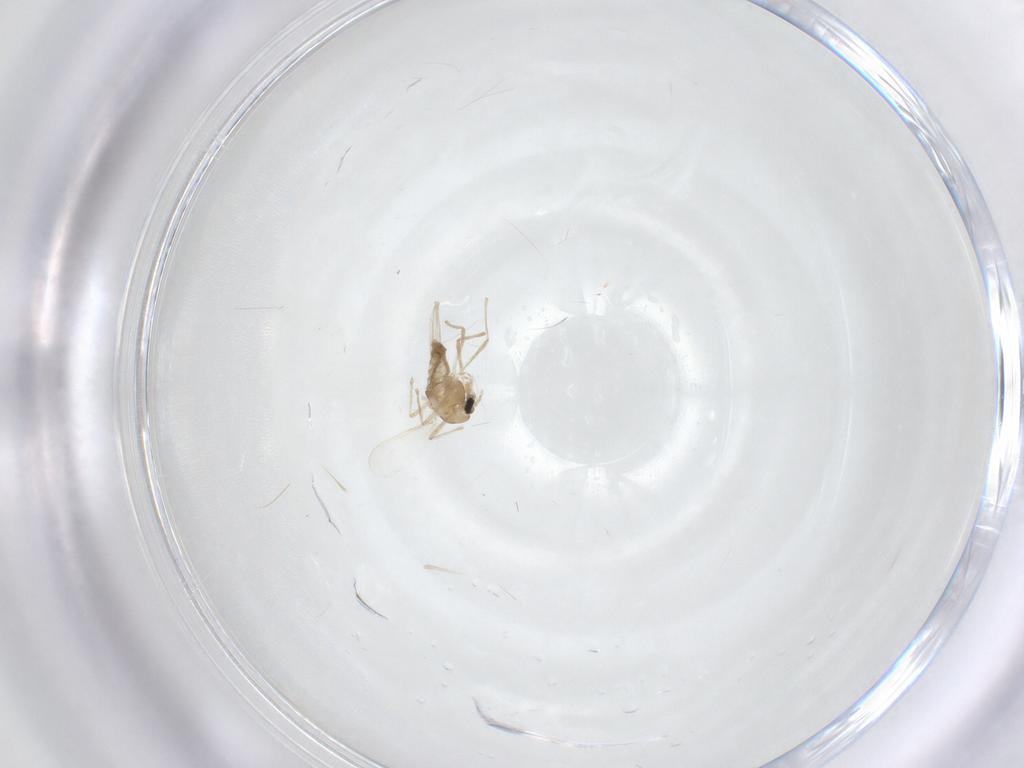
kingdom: Animalia
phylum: Arthropoda
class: Insecta
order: Diptera
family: Chironomidae
